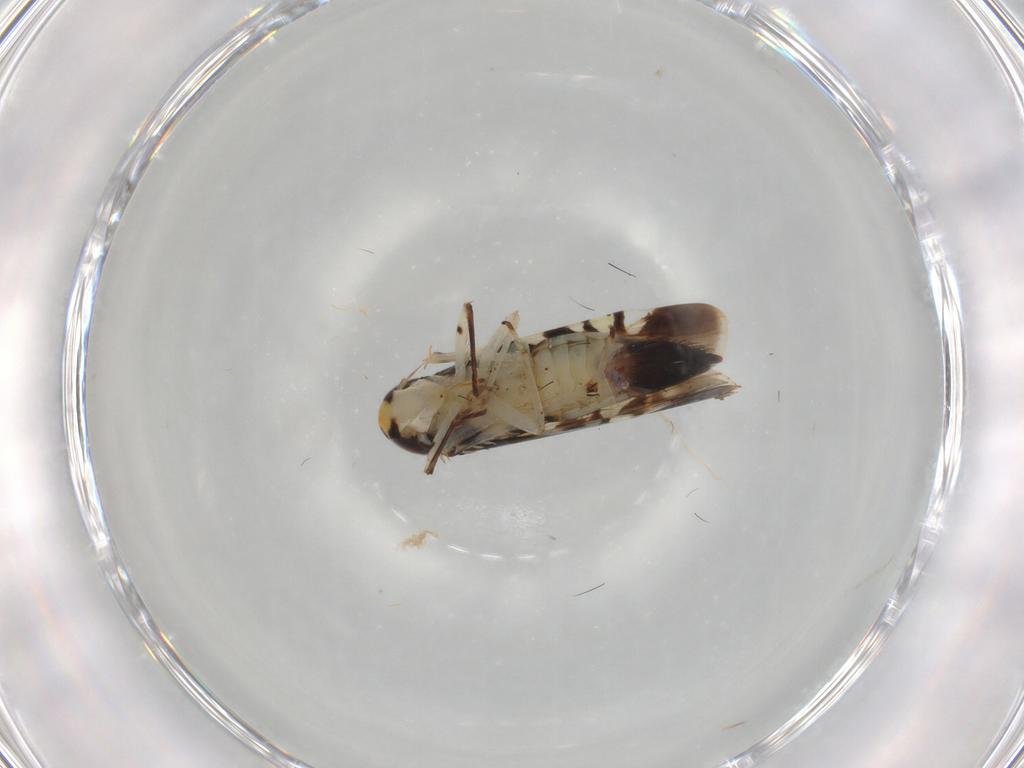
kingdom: Animalia
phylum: Arthropoda
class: Insecta
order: Hemiptera
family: Cicadellidae
